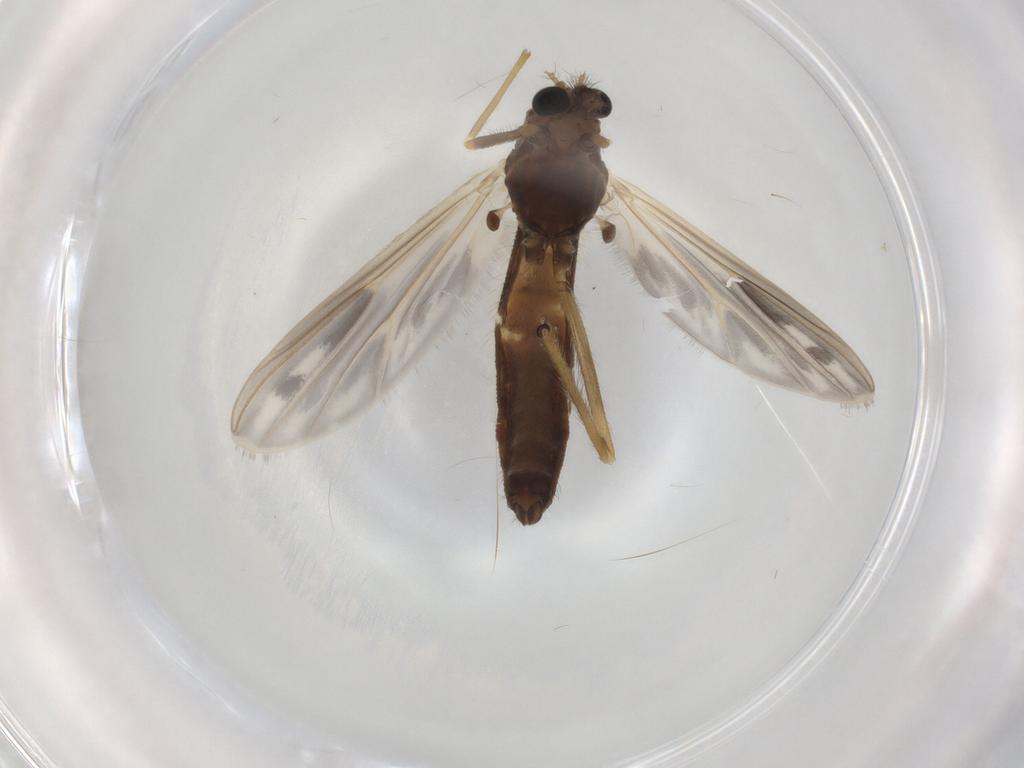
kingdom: Animalia
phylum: Arthropoda
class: Insecta
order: Diptera
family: Chironomidae
